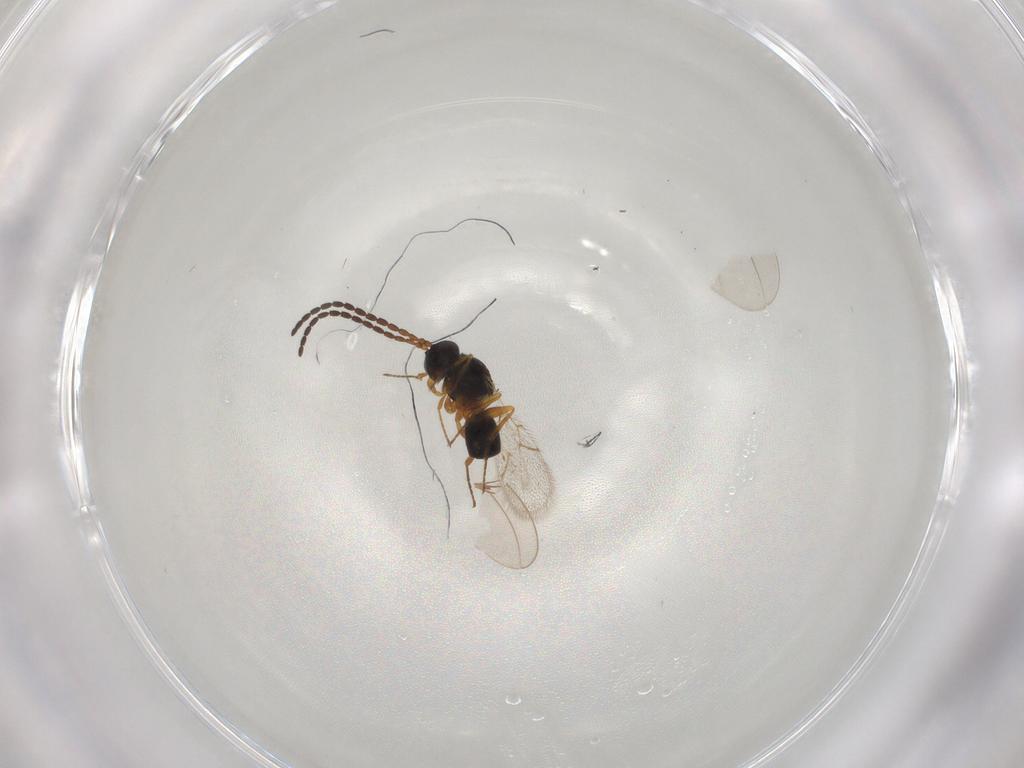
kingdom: Animalia
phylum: Arthropoda
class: Insecta
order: Hymenoptera
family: Figitidae
